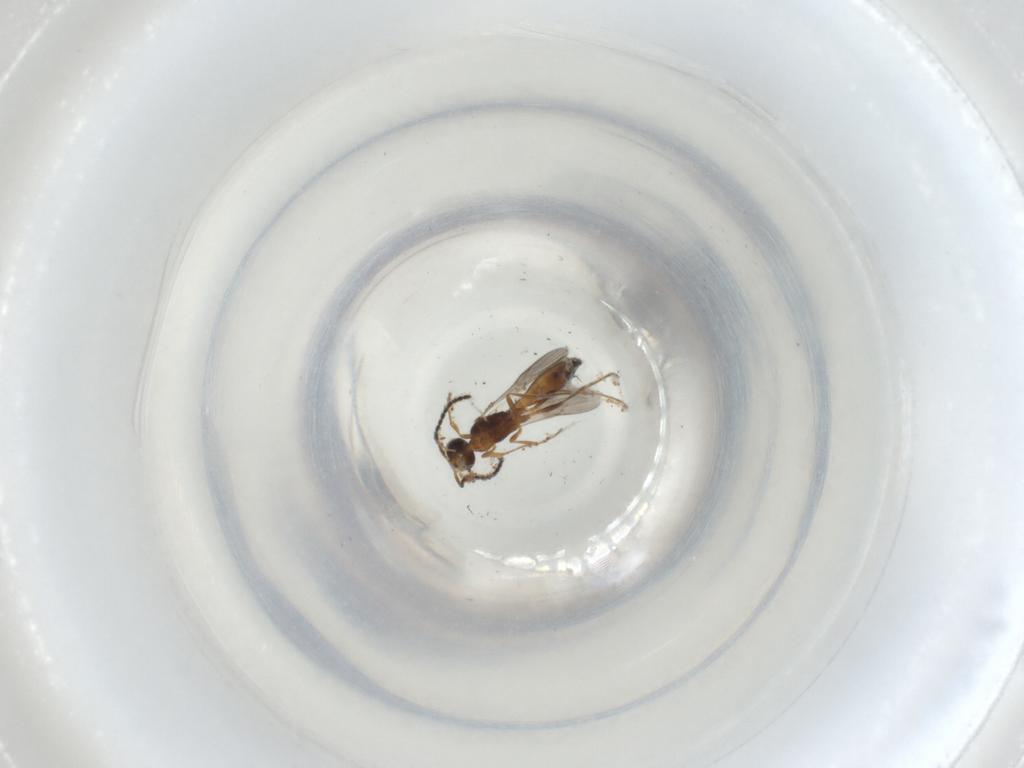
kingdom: Animalia
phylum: Arthropoda
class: Insecta
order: Hymenoptera
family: Scelionidae
